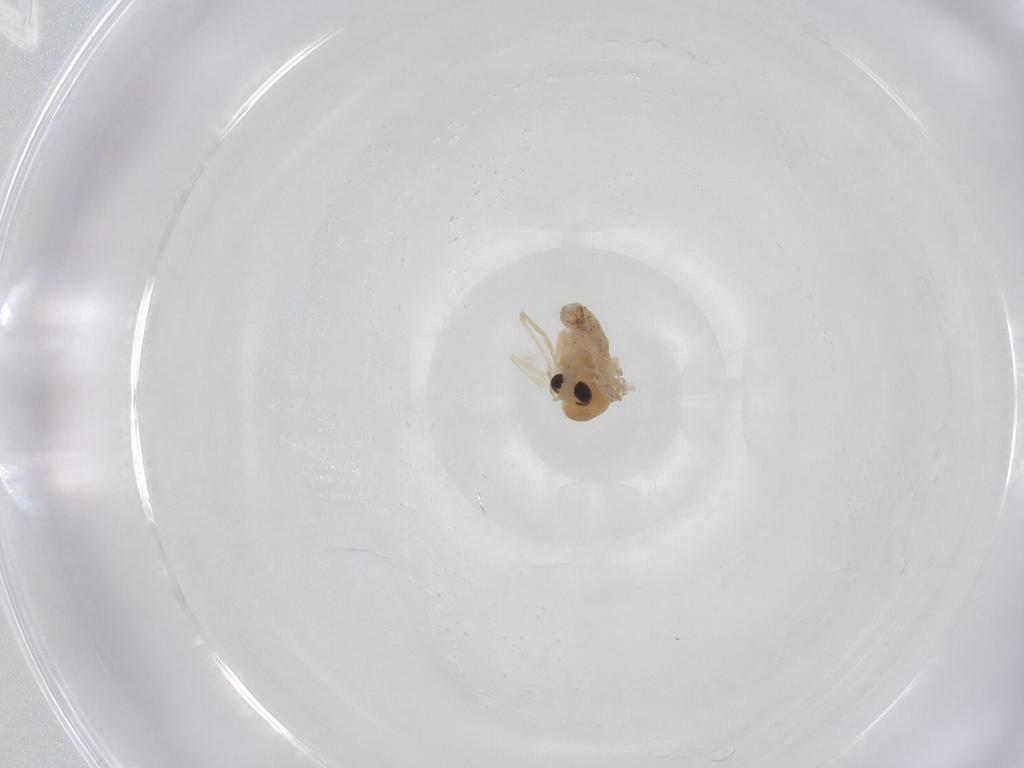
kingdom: Animalia
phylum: Arthropoda
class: Insecta
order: Diptera
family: Chironomidae
